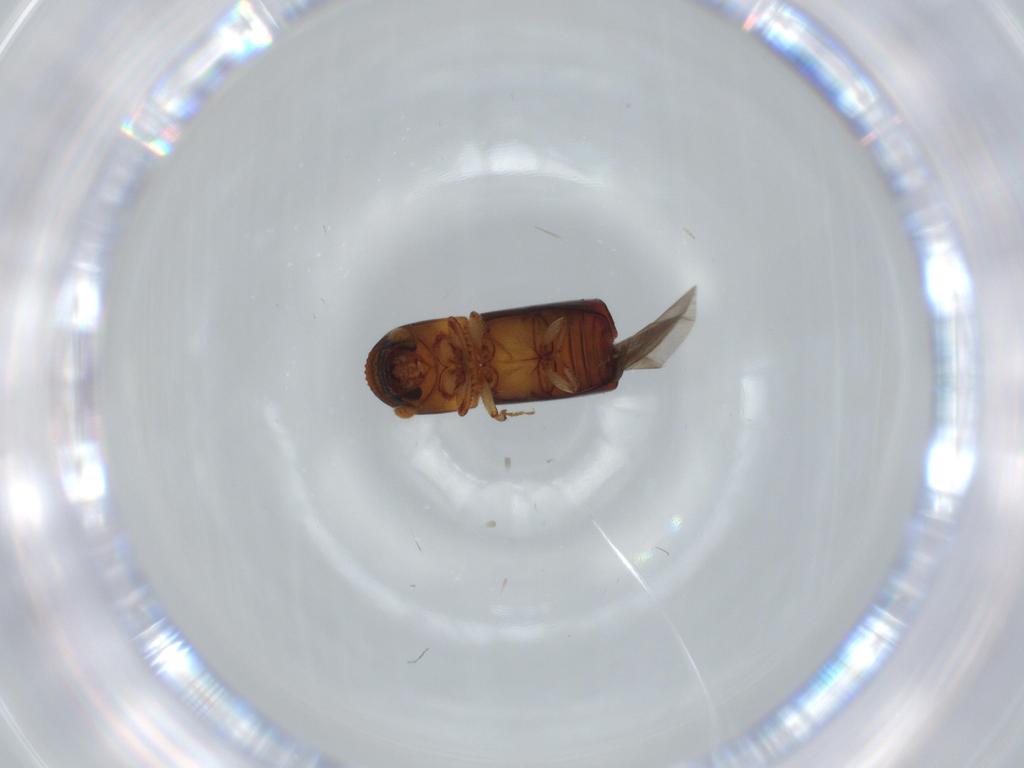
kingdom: Animalia
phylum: Arthropoda
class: Insecta
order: Coleoptera
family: Curculionidae
